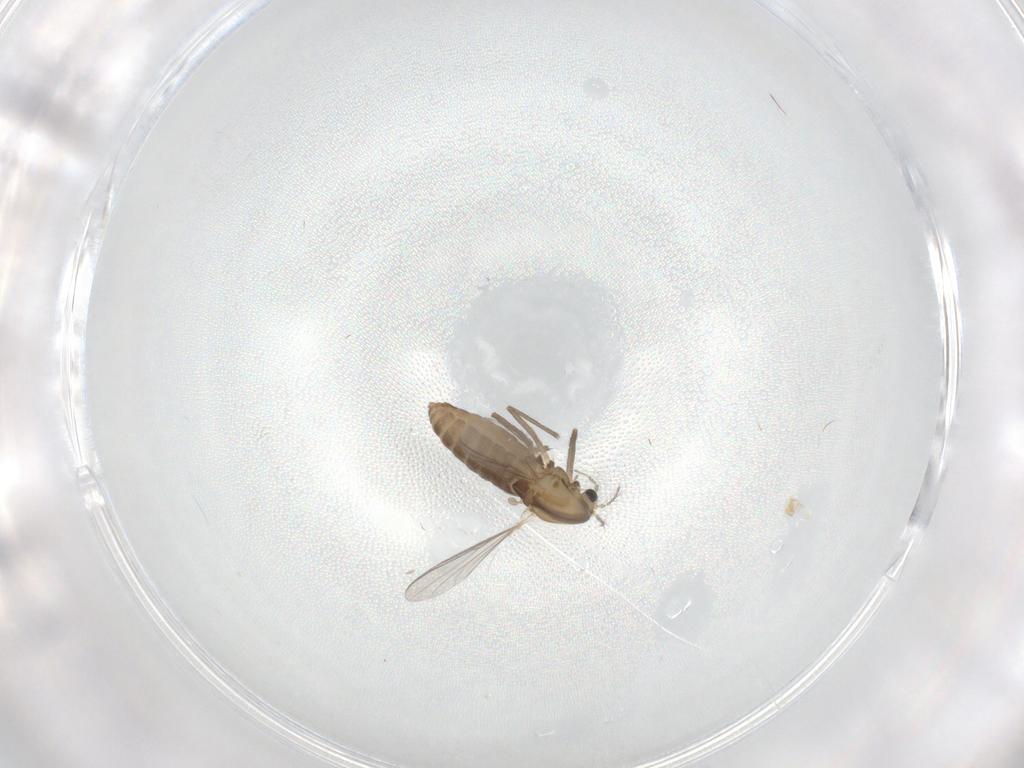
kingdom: Animalia
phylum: Arthropoda
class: Insecta
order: Diptera
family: Chironomidae
